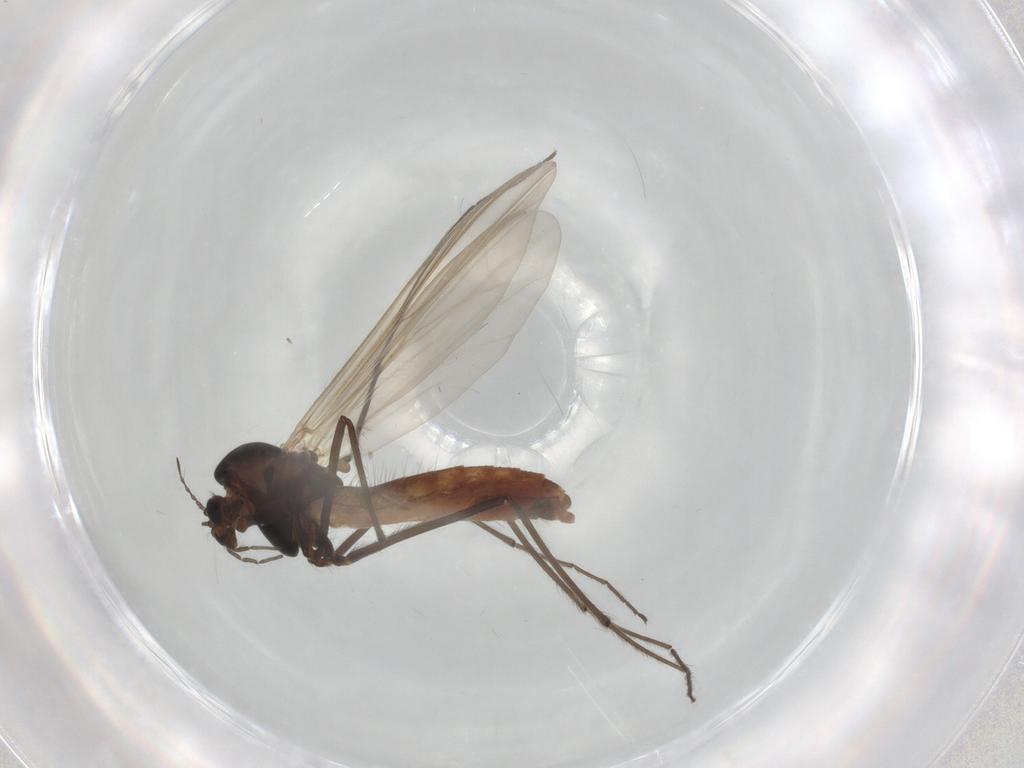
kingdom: Animalia
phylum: Arthropoda
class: Insecta
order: Diptera
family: Chironomidae
